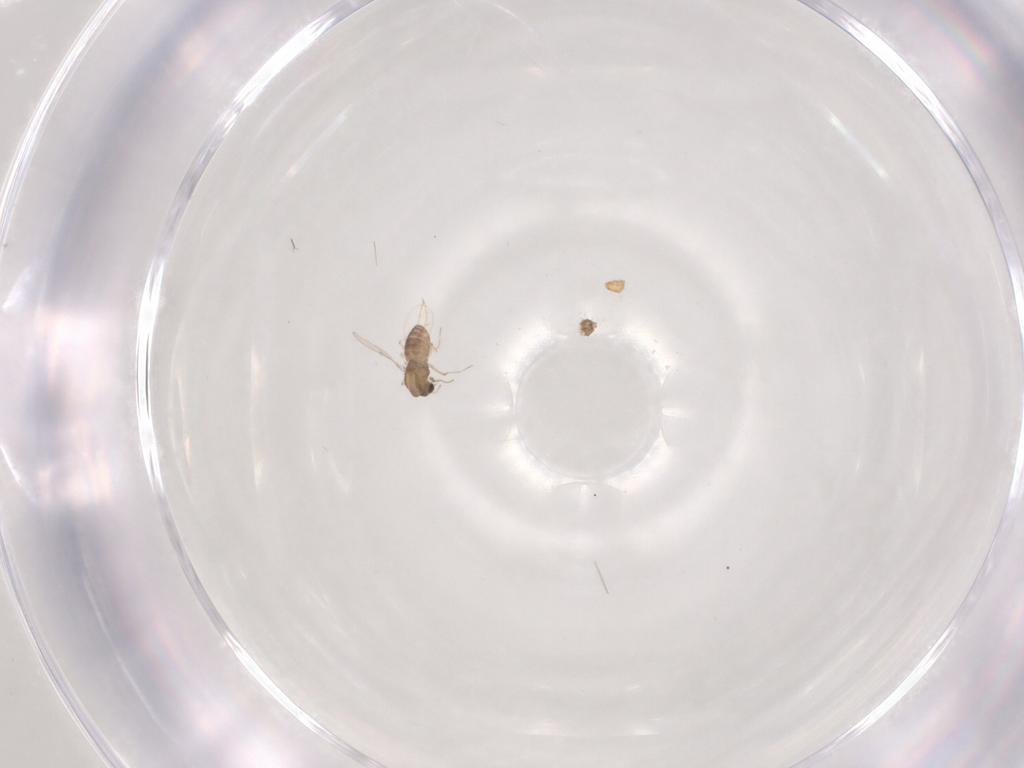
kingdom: Animalia
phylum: Arthropoda
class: Insecta
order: Diptera
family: Chironomidae
